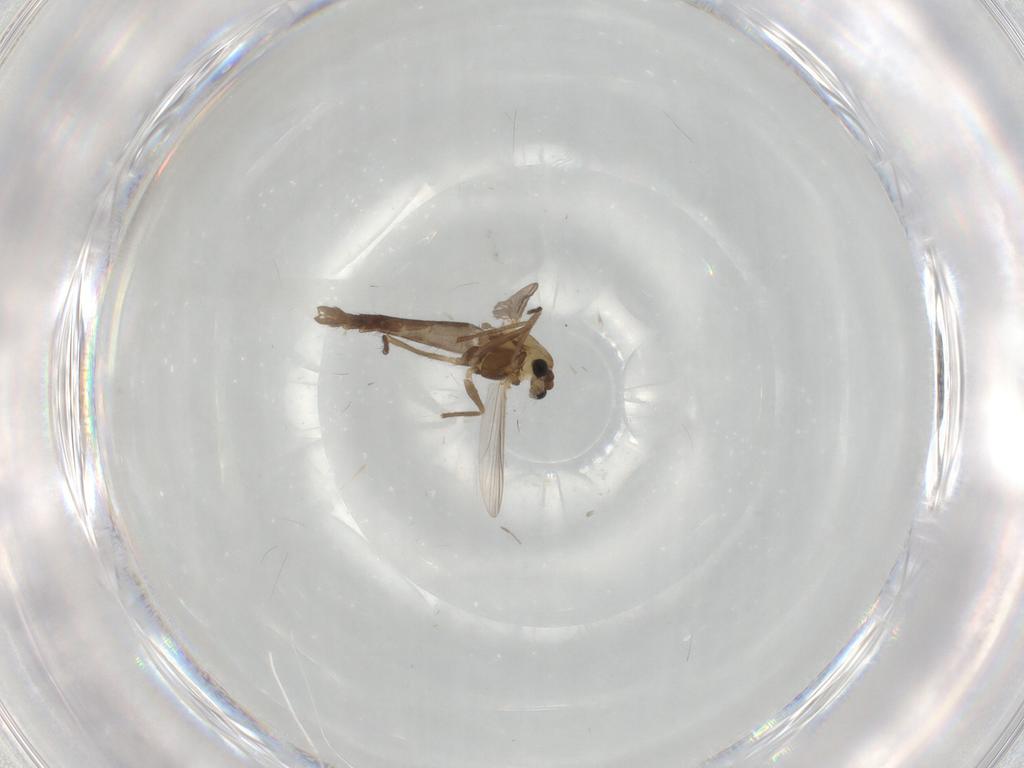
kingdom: Animalia
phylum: Arthropoda
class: Insecta
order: Diptera
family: Chironomidae
